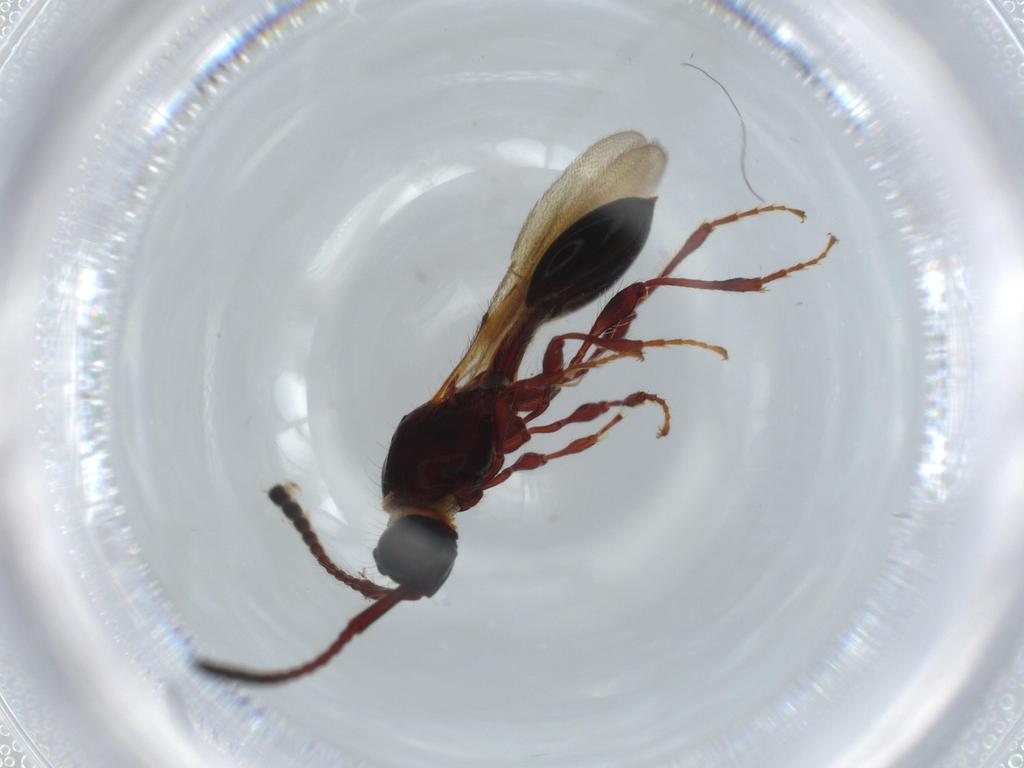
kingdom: Animalia
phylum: Arthropoda
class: Insecta
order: Hymenoptera
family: Diapriidae
